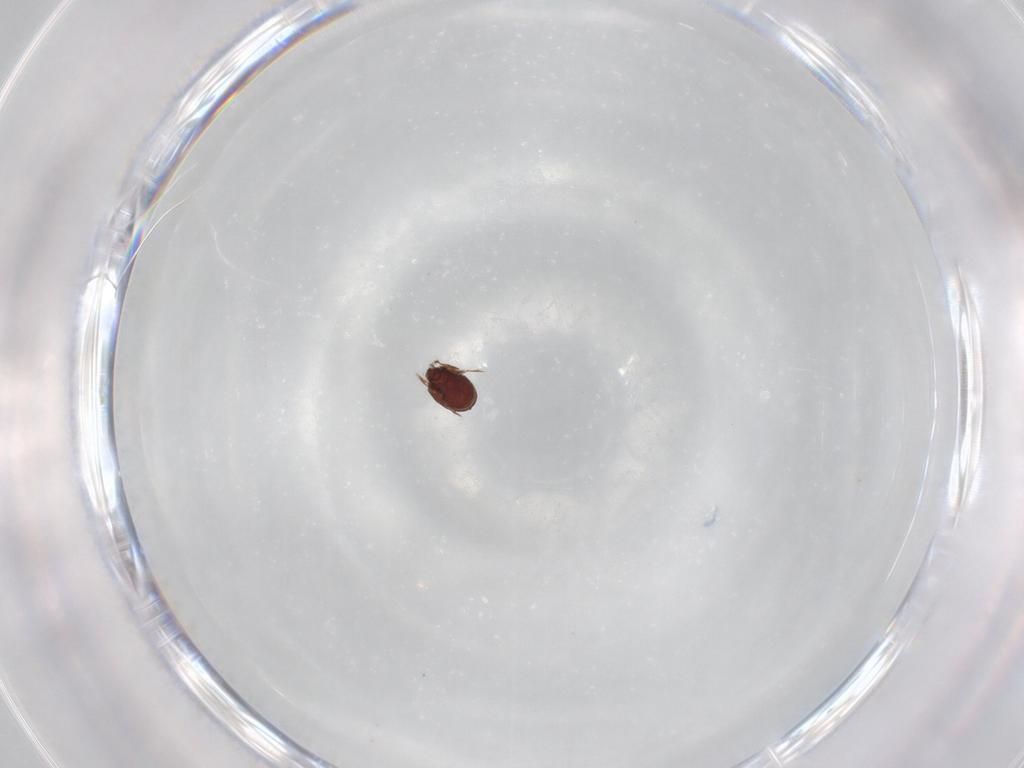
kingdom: Animalia
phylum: Arthropoda
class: Arachnida
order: Sarcoptiformes
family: Phenopelopidae
